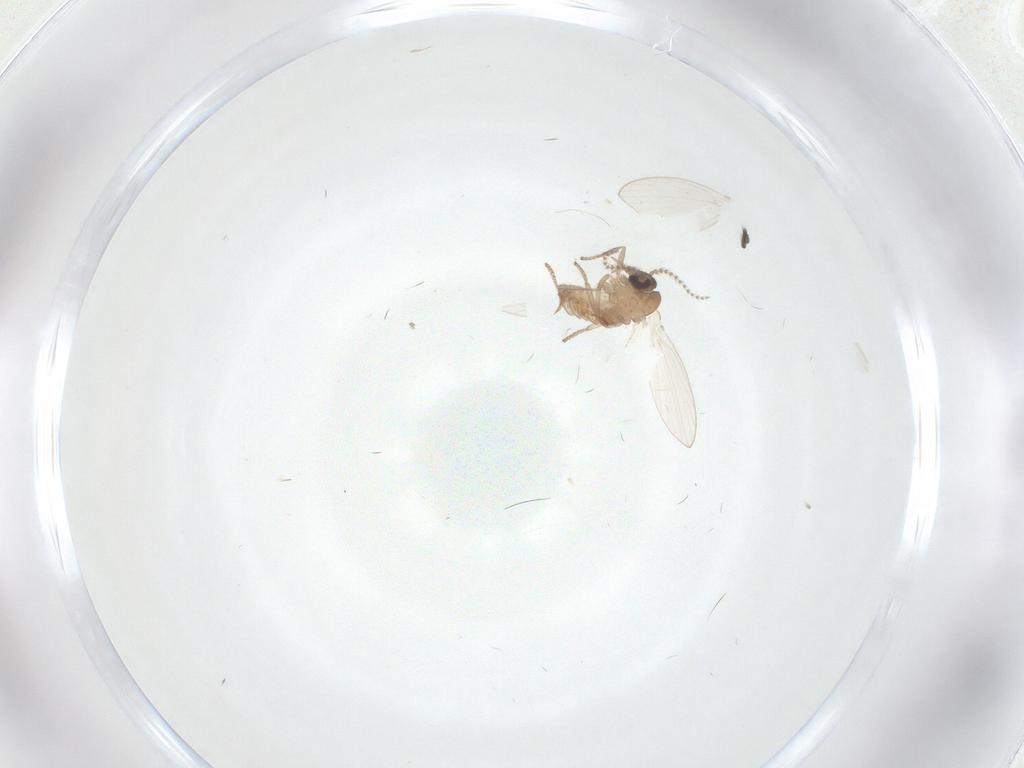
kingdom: Animalia
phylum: Arthropoda
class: Insecta
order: Diptera
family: Psychodidae
